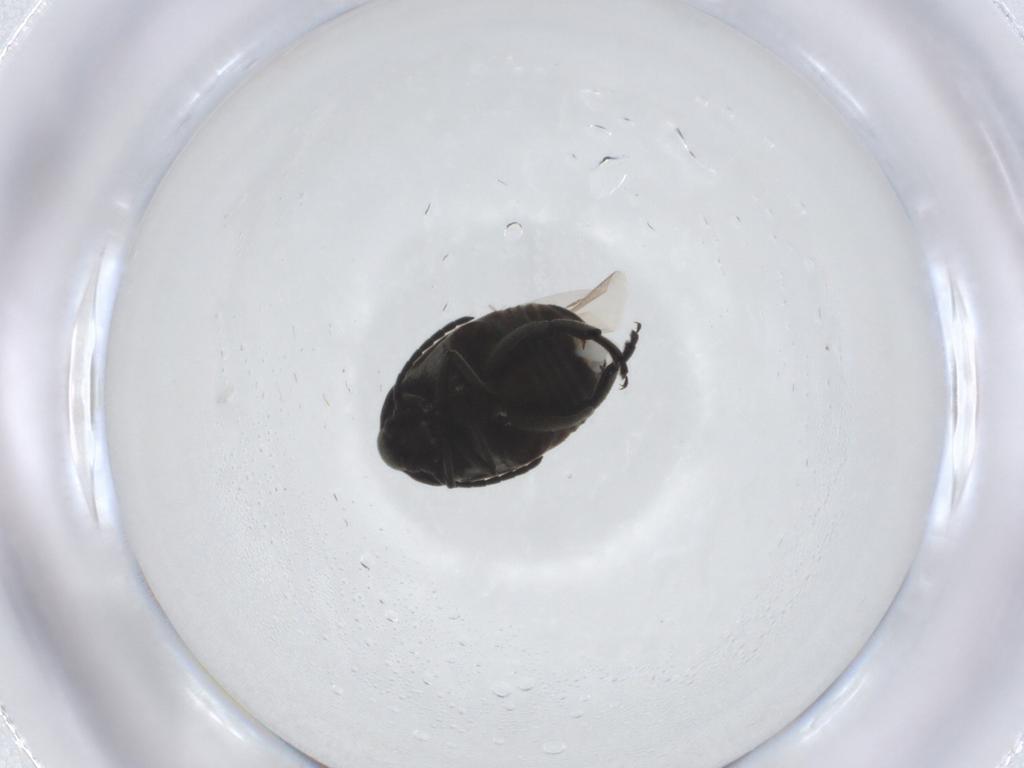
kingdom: Animalia
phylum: Arthropoda
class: Insecta
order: Coleoptera
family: Chrysomelidae
